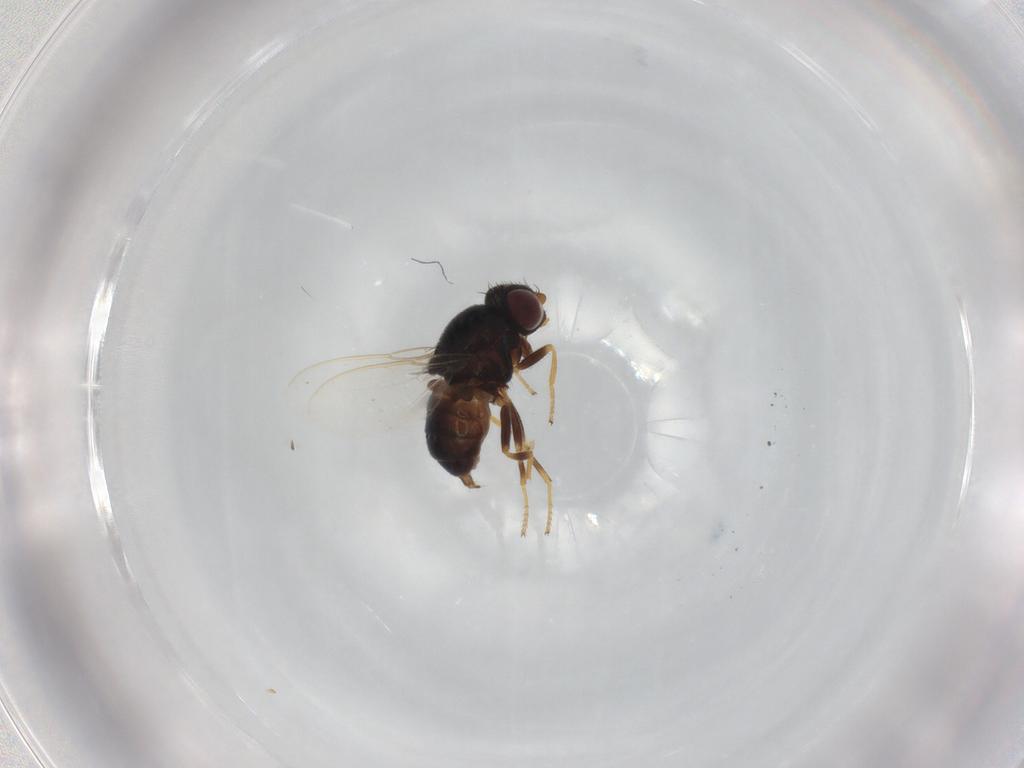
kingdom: Animalia
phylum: Arthropoda
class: Insecta
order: Diptera
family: Chloropidae
